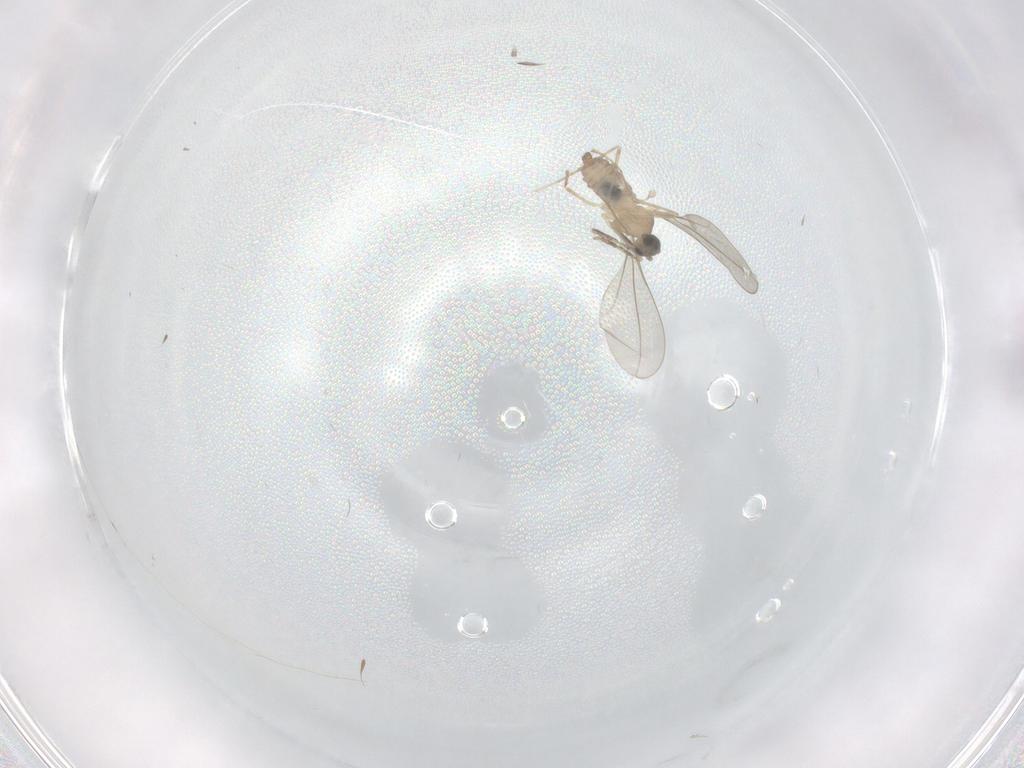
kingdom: Animalia
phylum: Arthropoda
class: Insecta
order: Diptera
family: Cecidomyiidae
